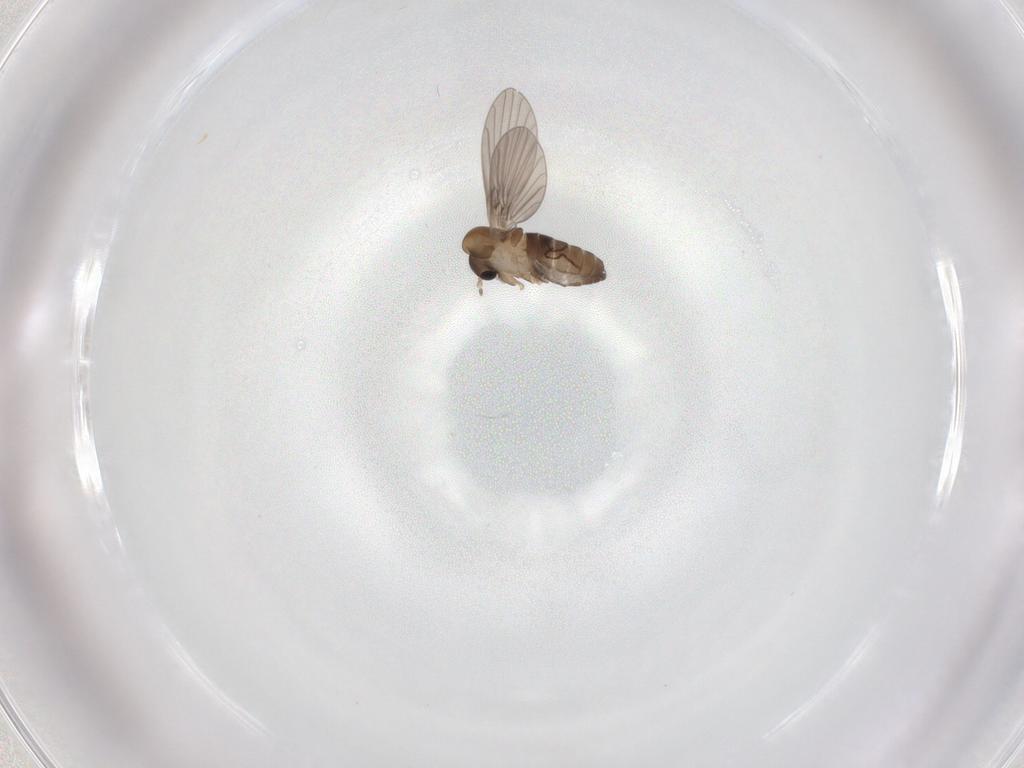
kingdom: Animalia
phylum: Arthropoda
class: Insecta
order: Diptera
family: Psychodidae
